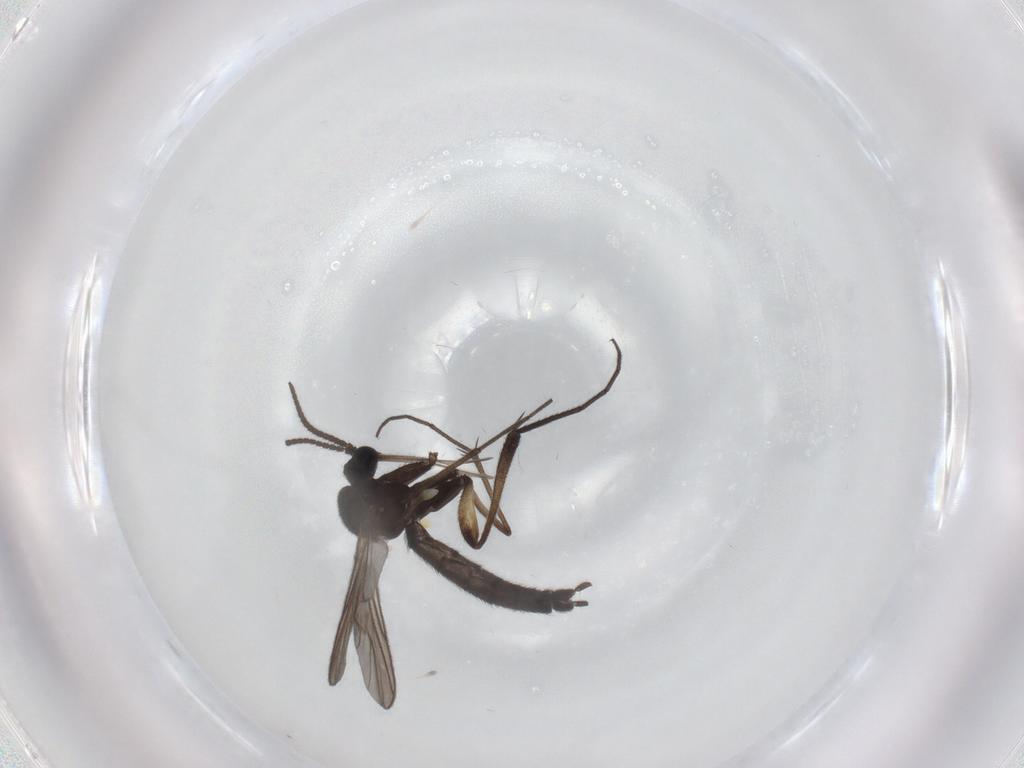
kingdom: Animalia
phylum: Arthropoda
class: Insecta
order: Diptera
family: Keroplatidae
